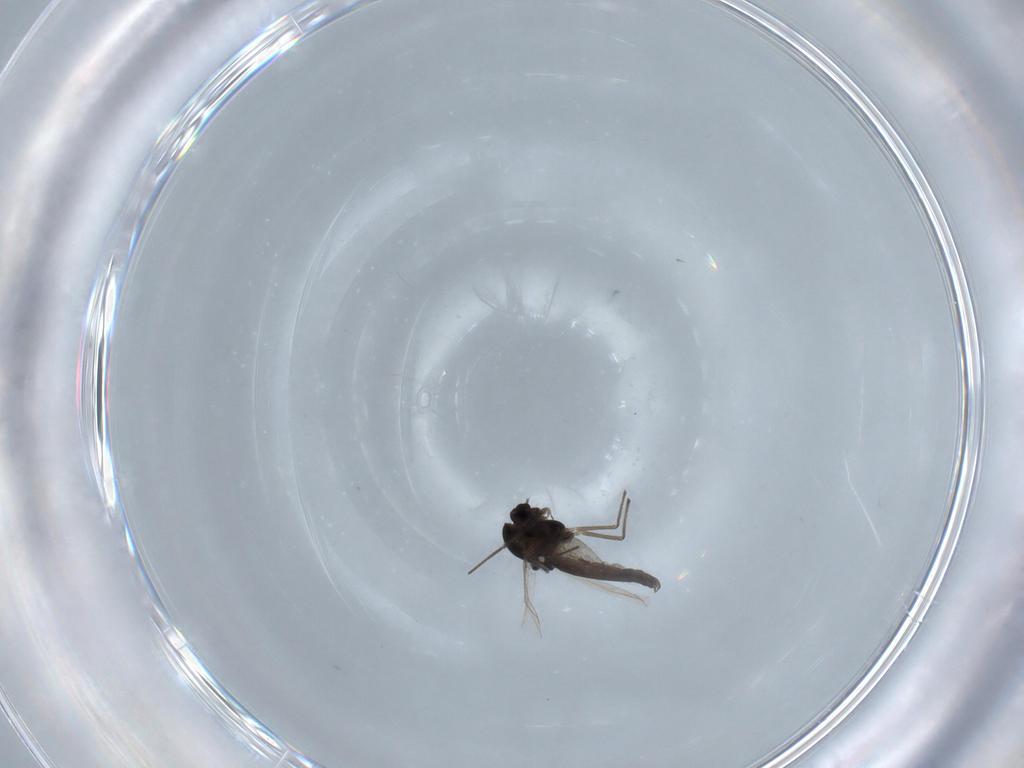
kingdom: Animalia
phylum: Arthropoda
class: Insecta
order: Diptera
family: Chironomidae
